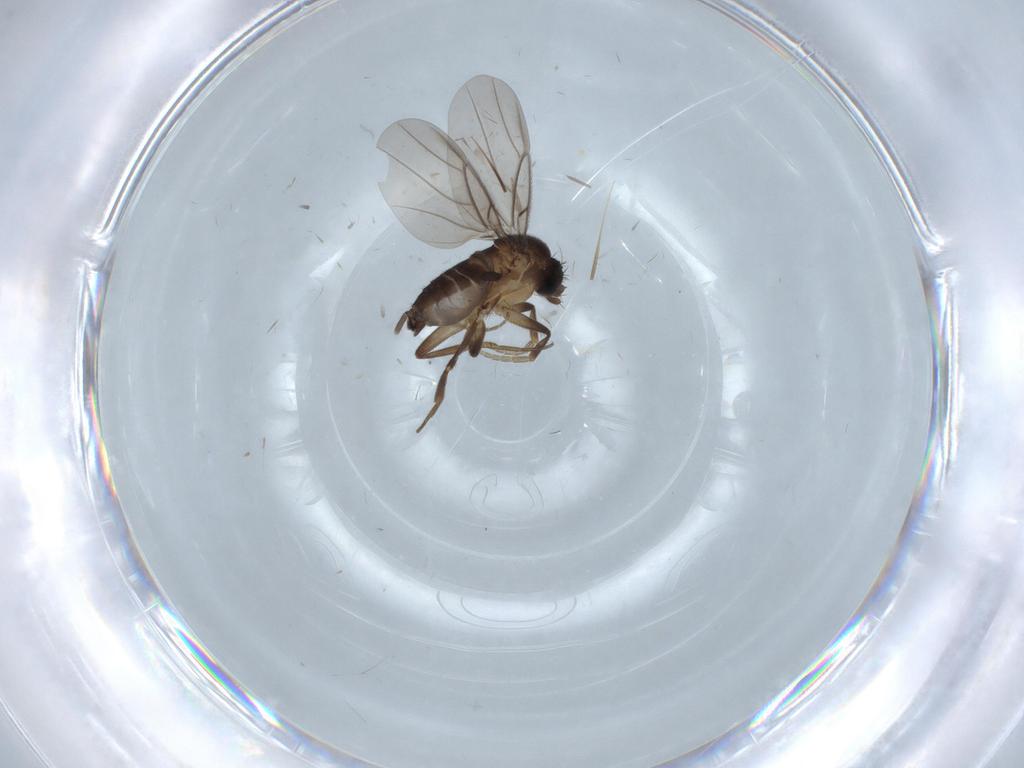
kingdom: Animalia
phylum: Arthropoda
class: Insecta
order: Diptera
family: Phoridae
